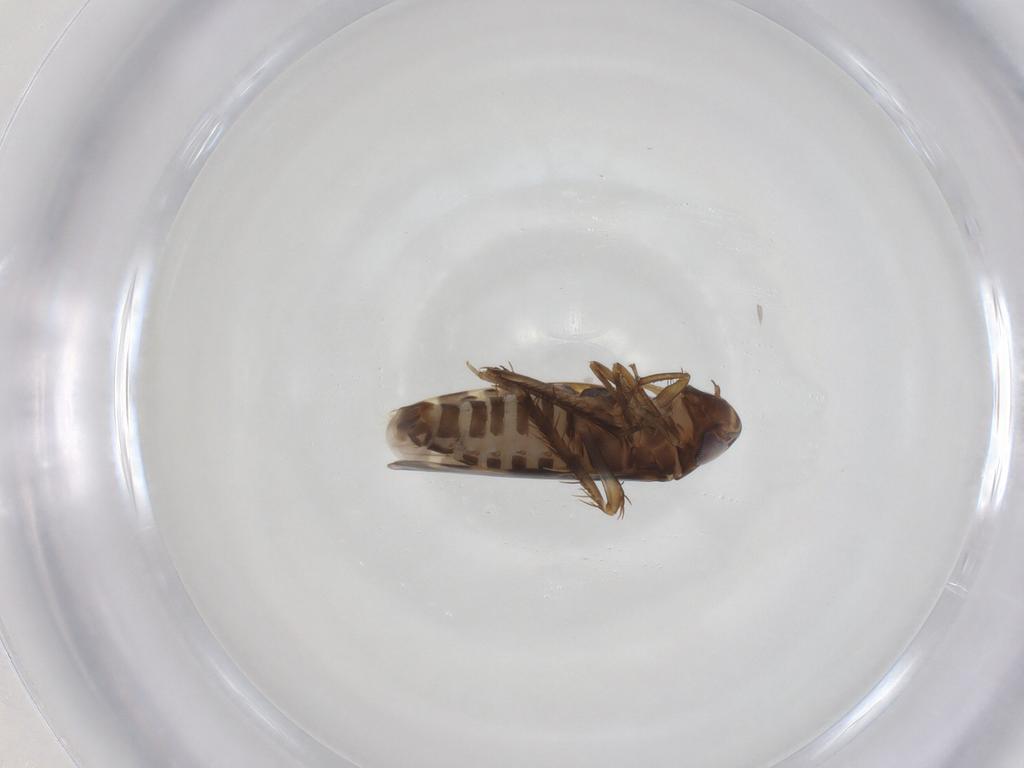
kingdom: Animalia
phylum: Arthropoda
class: Insecta
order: Hemiptera
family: Cicadellidae
